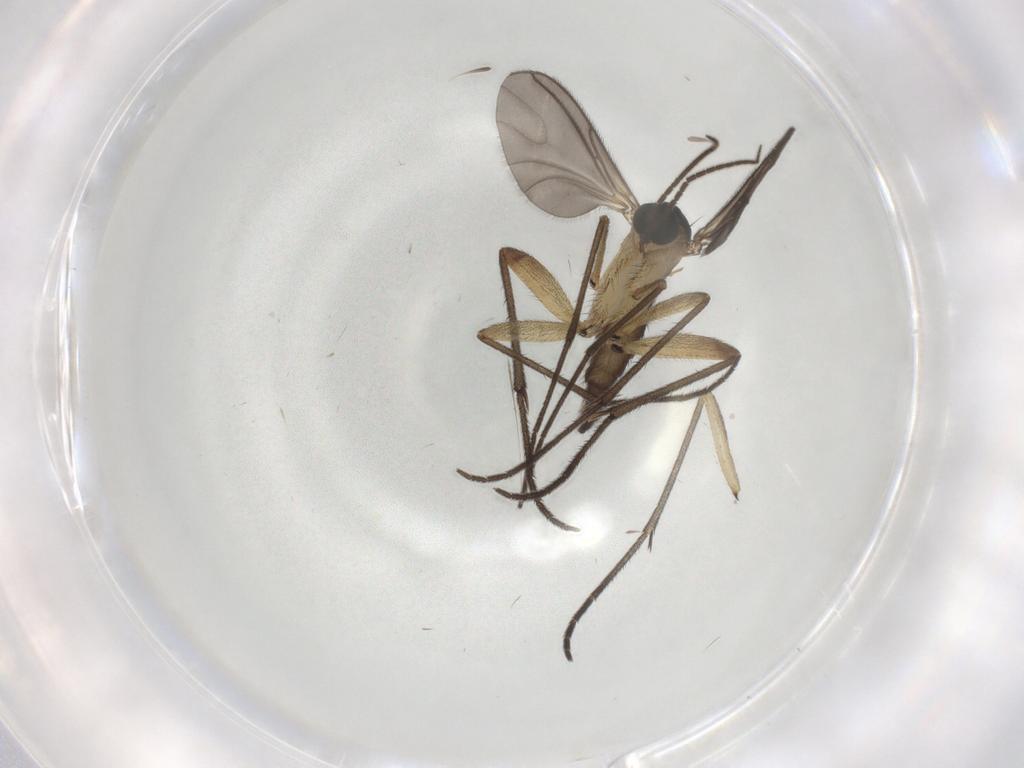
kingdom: Animalia
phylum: Arthropoda
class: Insecta
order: Diptera
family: Sciaridae
